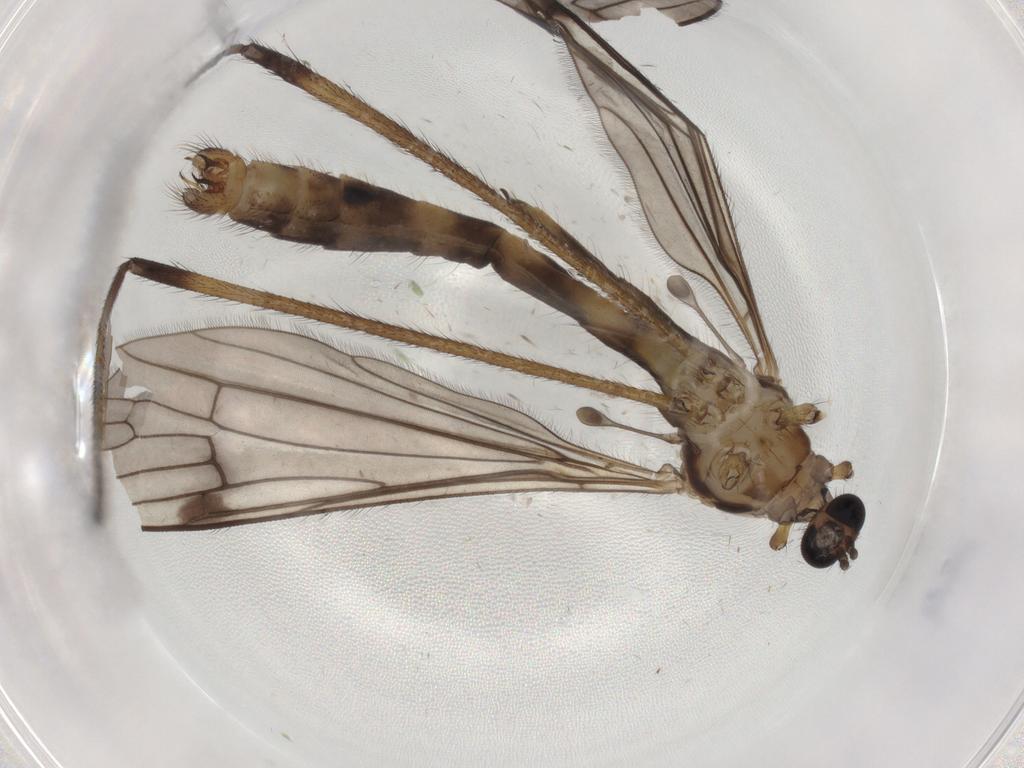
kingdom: Animalia
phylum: Arthropoda
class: Insecta
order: Diptera
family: Limoniidae
